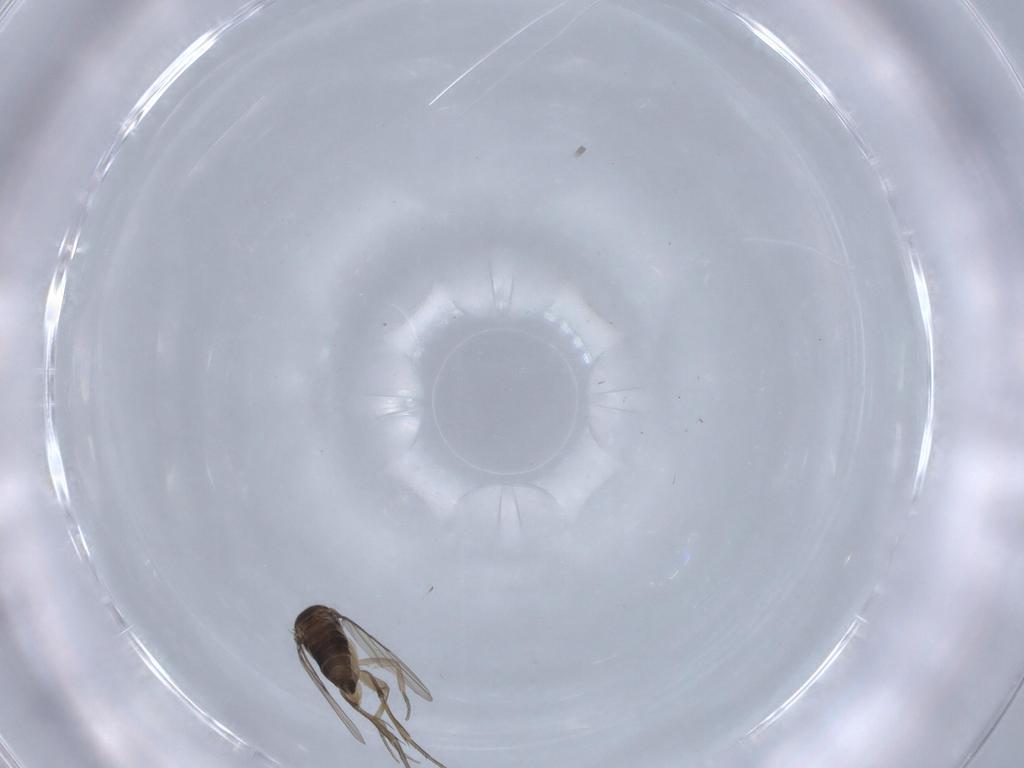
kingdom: Animalia
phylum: Arthropoda
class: Insecta
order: Diptera
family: Phoridae
